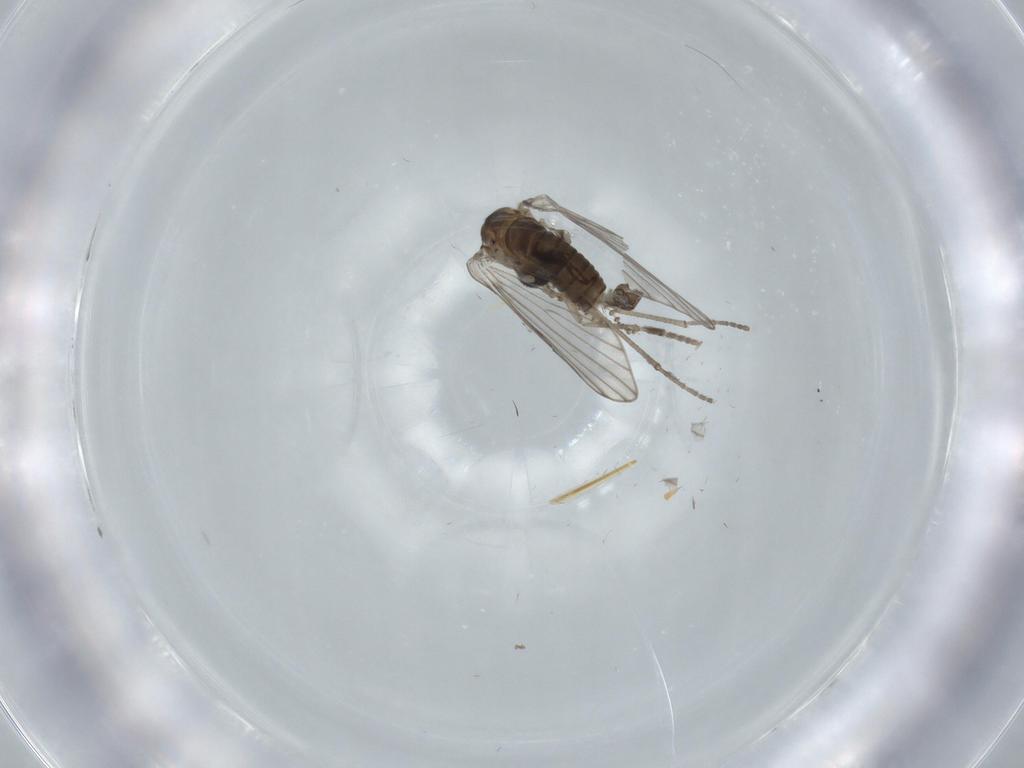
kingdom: Animalia
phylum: Arthropoda
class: Insecta
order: Diptera
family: Psychodidae
